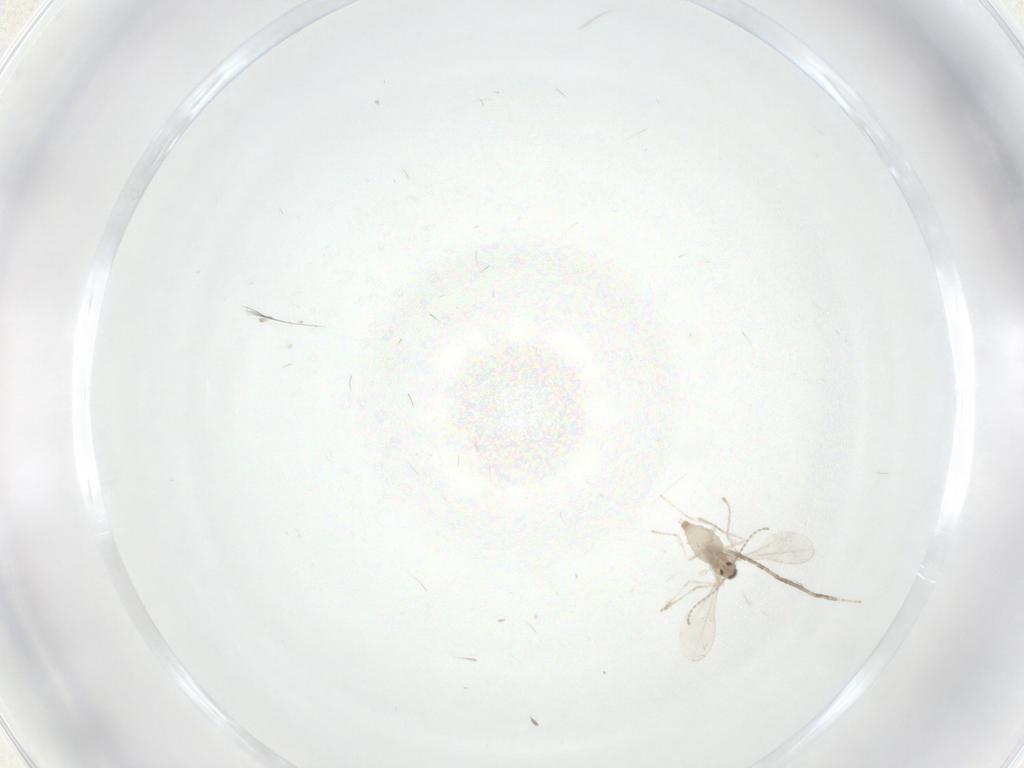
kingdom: Animalia
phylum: Arthropoda
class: Insecta
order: Diptera
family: Cecidomyiidae
